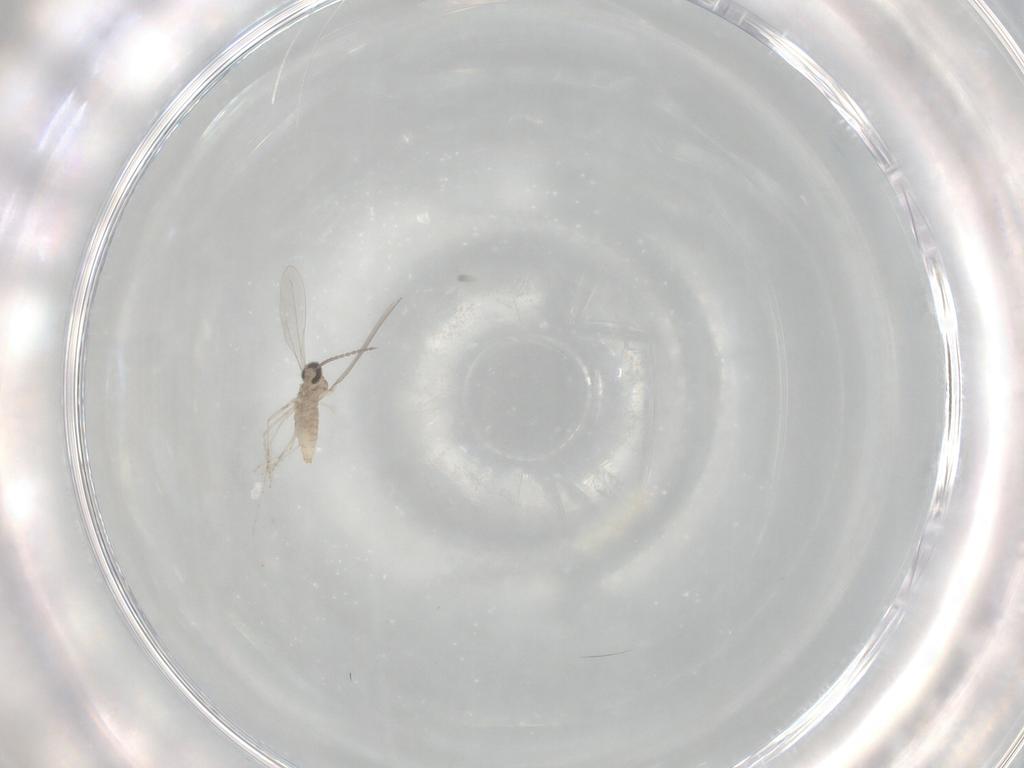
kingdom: Animalia
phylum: Arthropoda
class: Insecta
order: Diptera
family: Cecidomyiidae
